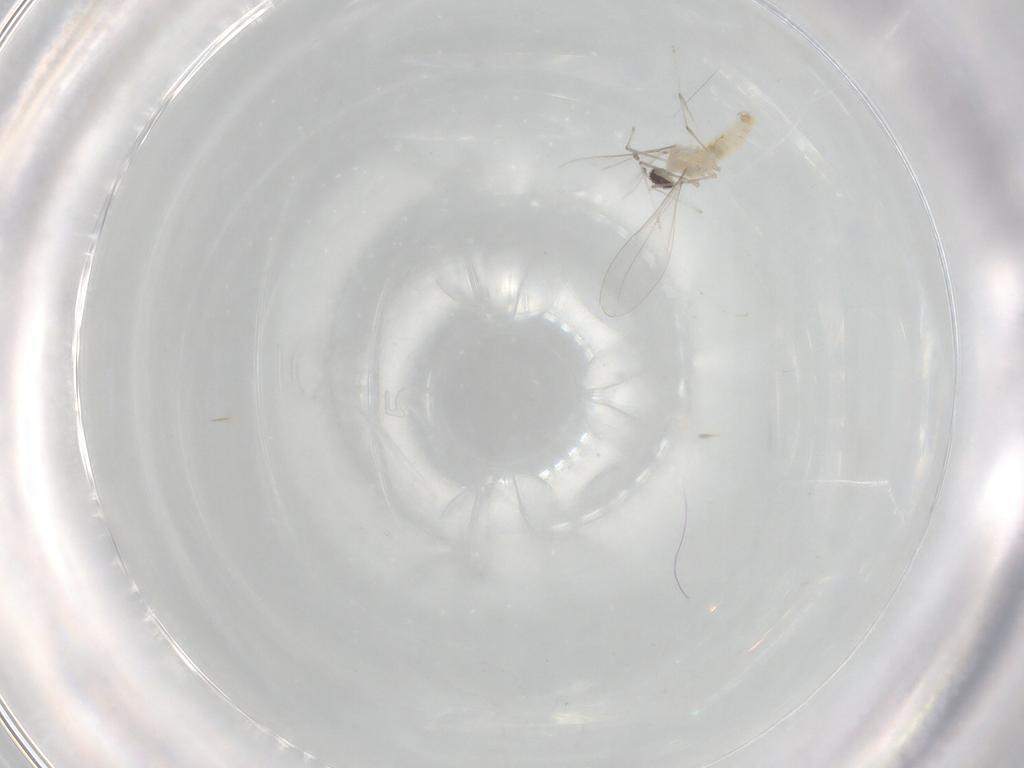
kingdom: Animalia
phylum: Arthropoda
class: Insecta
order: Diptera
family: Cecidomyiidae
